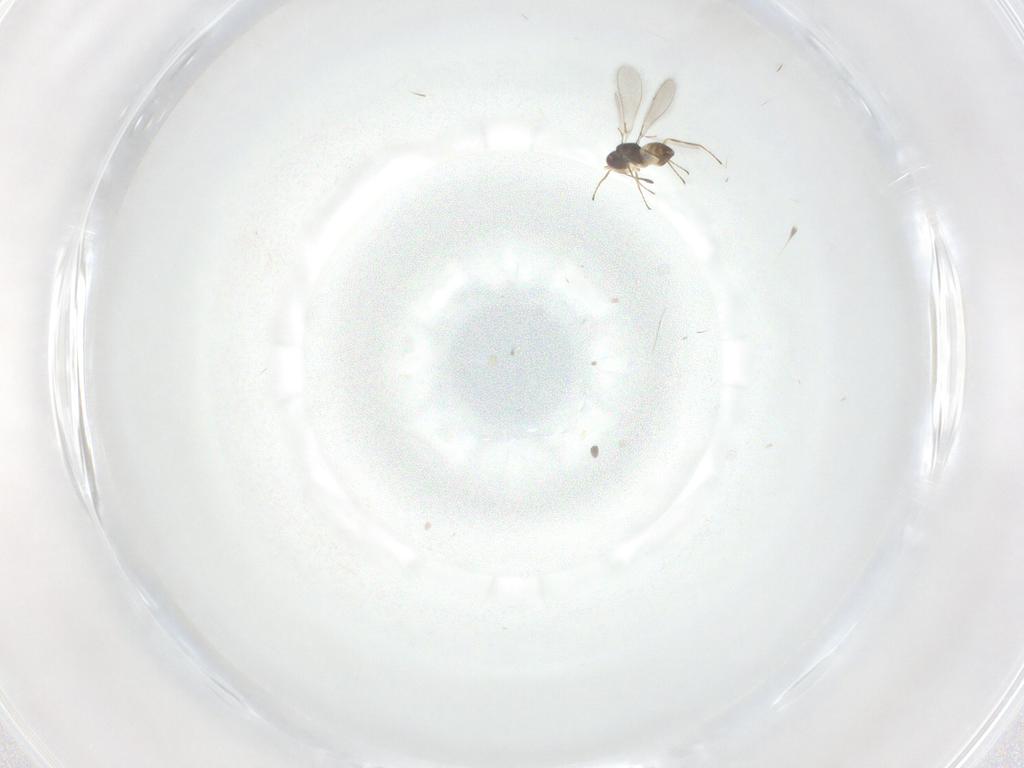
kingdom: Animalia
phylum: Arthropoda
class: Insecta
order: Hymenoptera
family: Mymaridae
